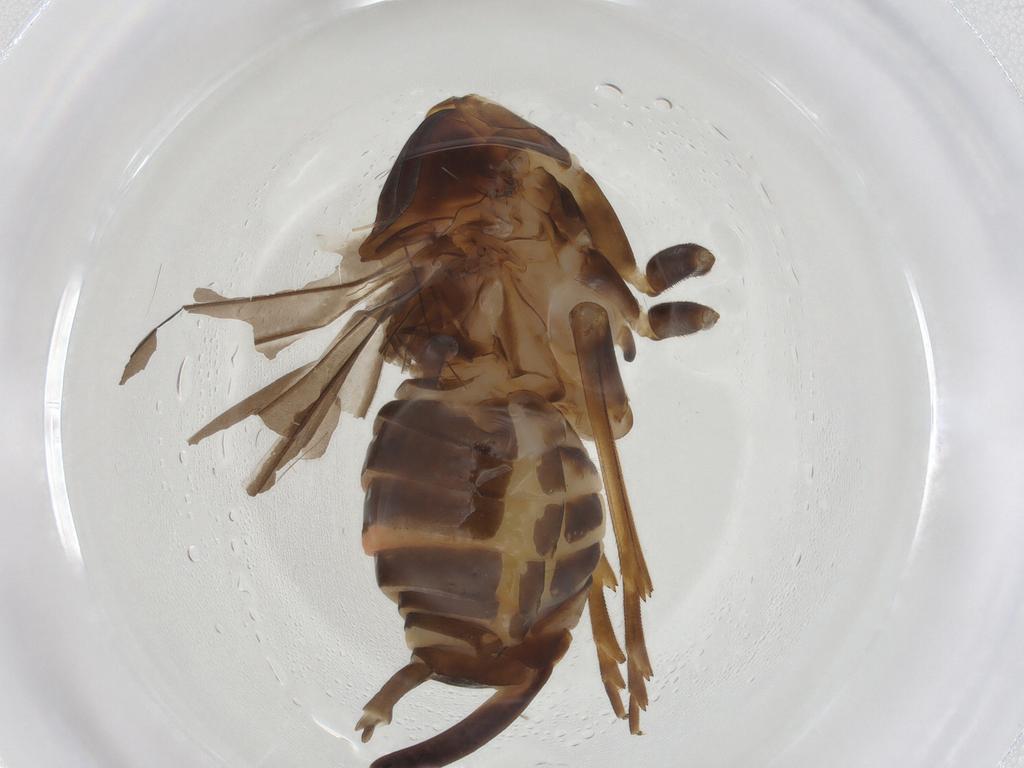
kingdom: Animalia
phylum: Arthropoda
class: Insecta
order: Hemiptera
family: Cixiidae
